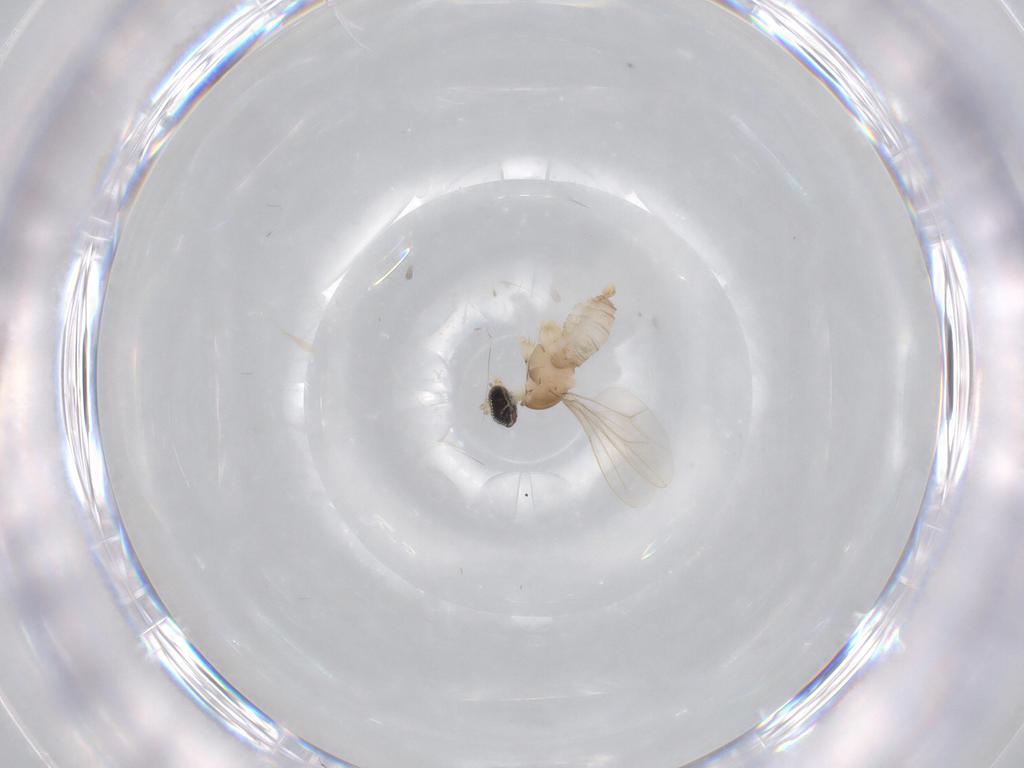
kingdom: Animalia
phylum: Arthropoda
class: Insecta
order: Diptera
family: Cecidomyiidae
